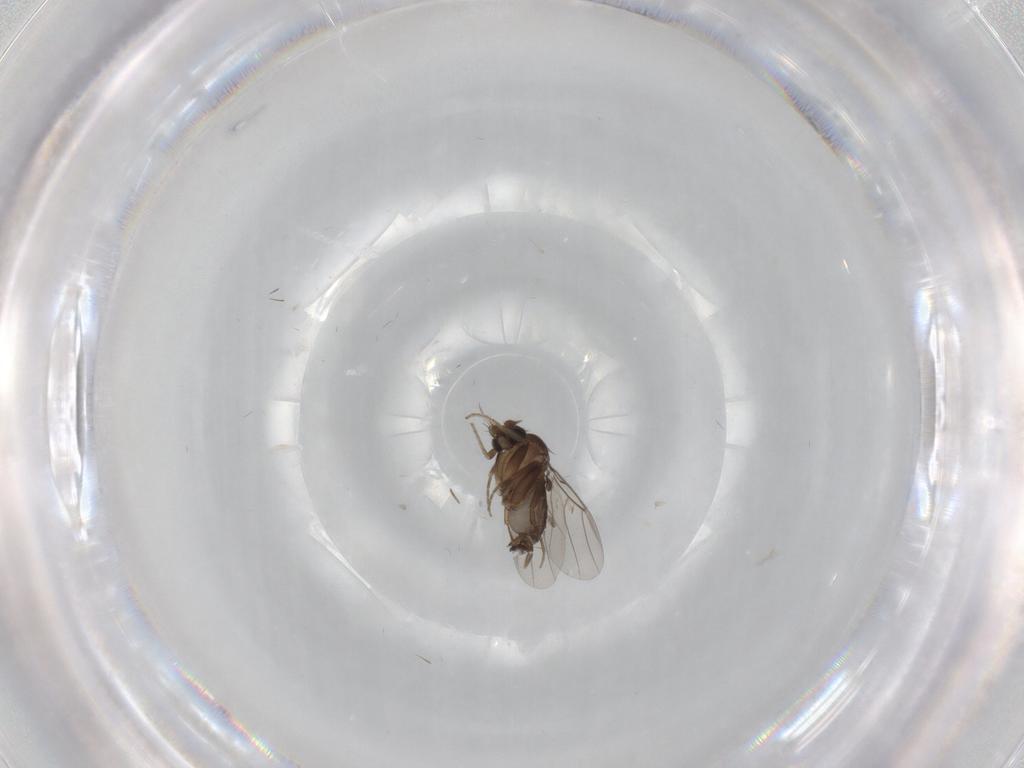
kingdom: Animalia
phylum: Arthropoda
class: Insecta
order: Diptera
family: Phoridae
